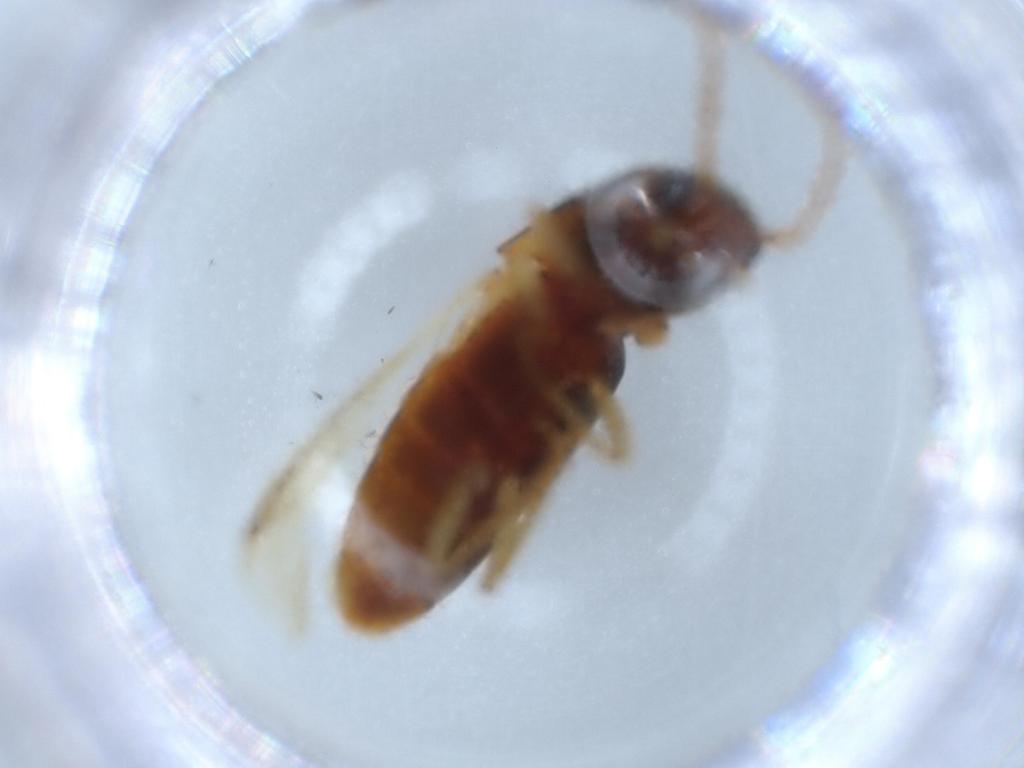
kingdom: Animalia
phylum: Arthropoda
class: Insecta
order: Coleoptera
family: Elateridae
